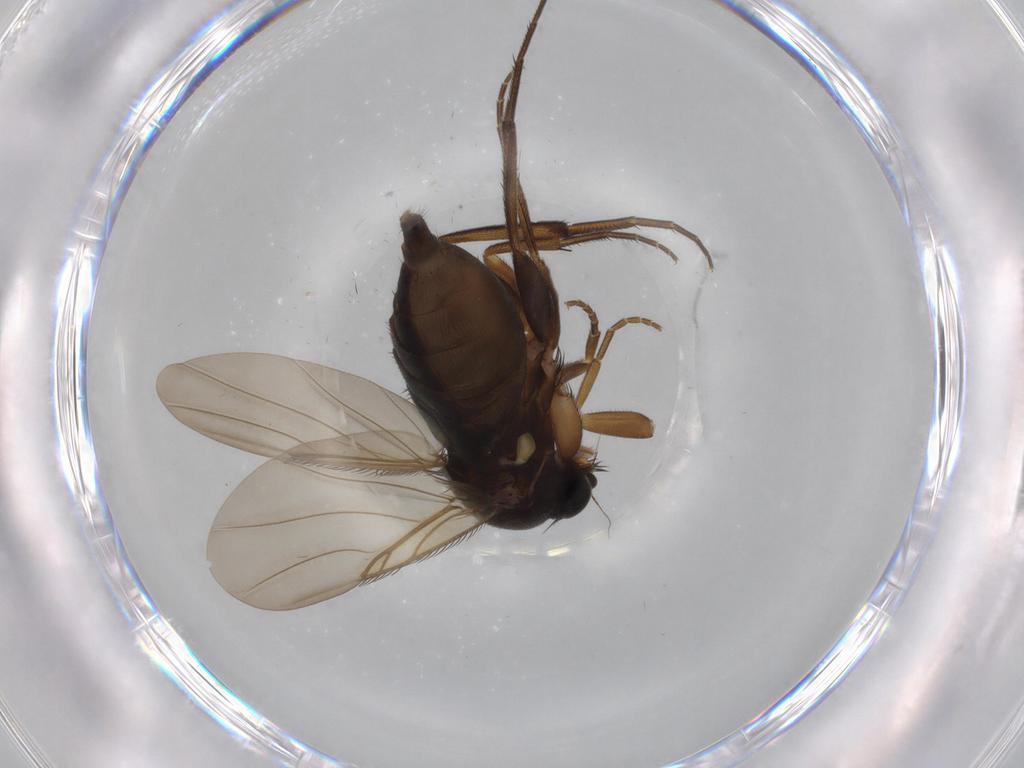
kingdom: Animalia
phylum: Arthropoda
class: Insecta
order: Diptera
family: Phoridae
